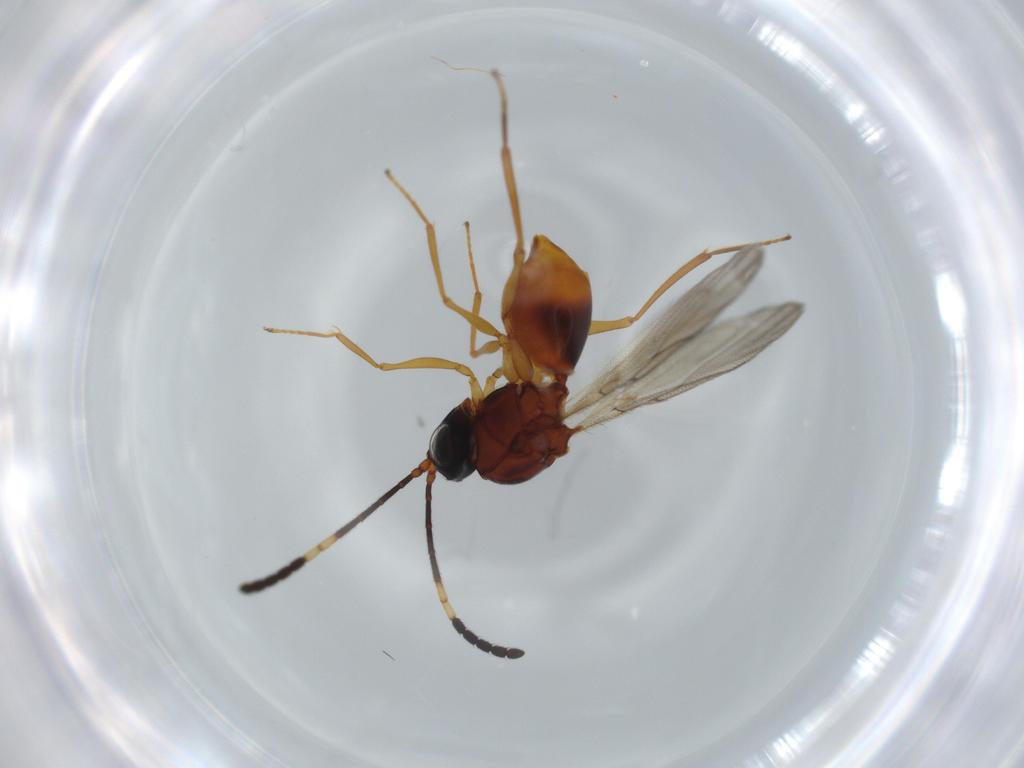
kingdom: Animalia
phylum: Arthropoda
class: Insecta
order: Hymenoptera
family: Figitidae
